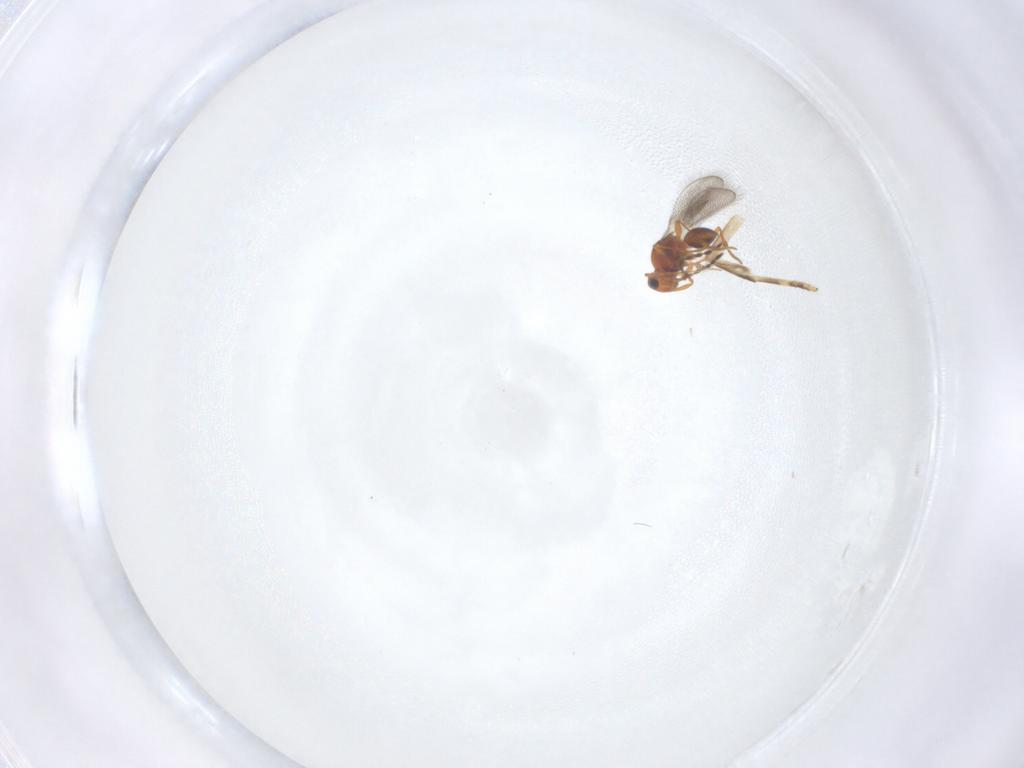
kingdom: Animalia
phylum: Arthropoda
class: Insecta
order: Hymenoptera
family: Platygastridae
